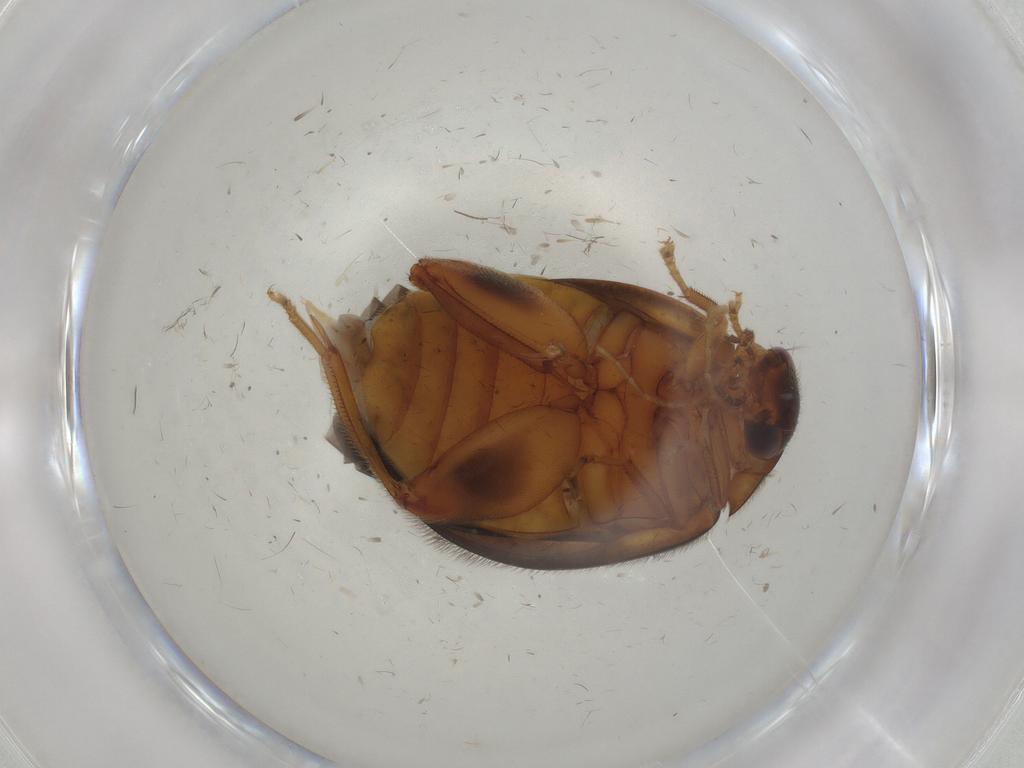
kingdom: Animalia
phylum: Arthropoda
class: Insecta
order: Coleoptera
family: Scirtidae
